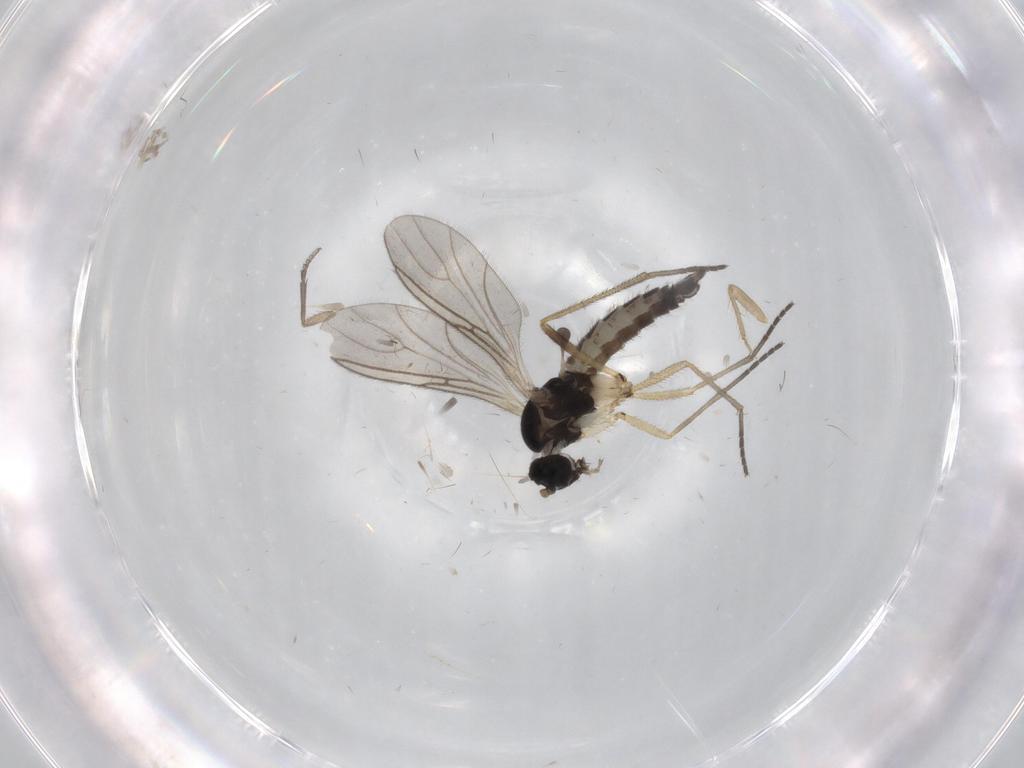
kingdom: Animalia
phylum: Arthropoda
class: Insecta
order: Diptera
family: Sciaridae
